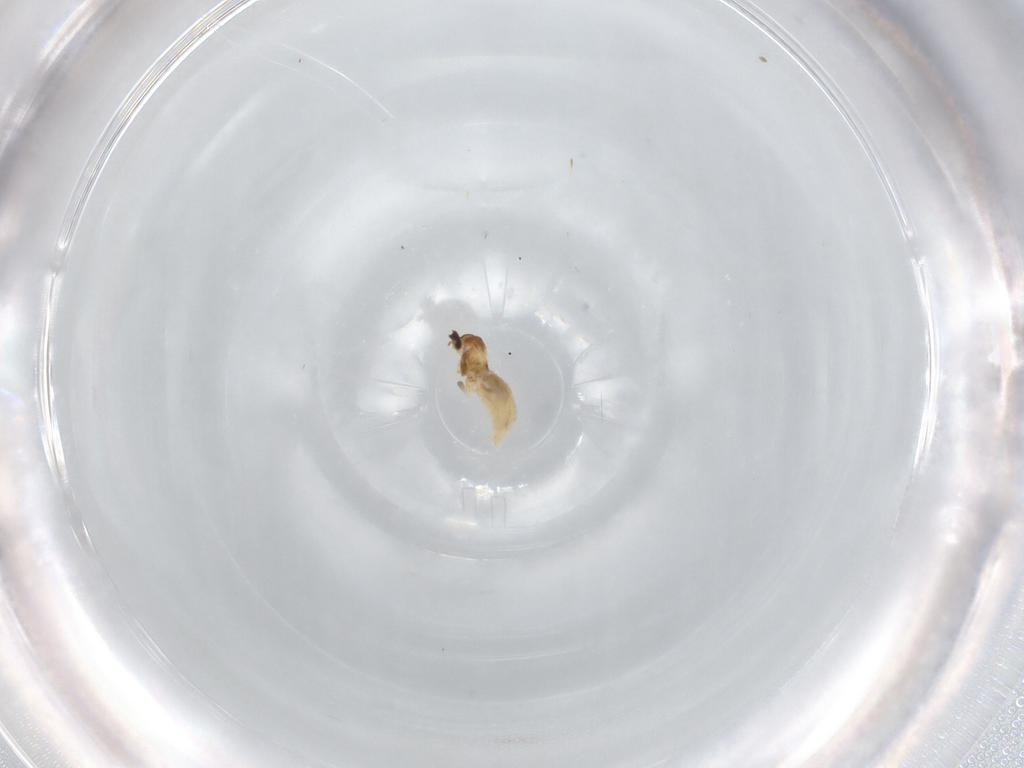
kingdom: Animalia
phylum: Arthropoda
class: Insecta
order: Diptera
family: Cecidomyiidae
